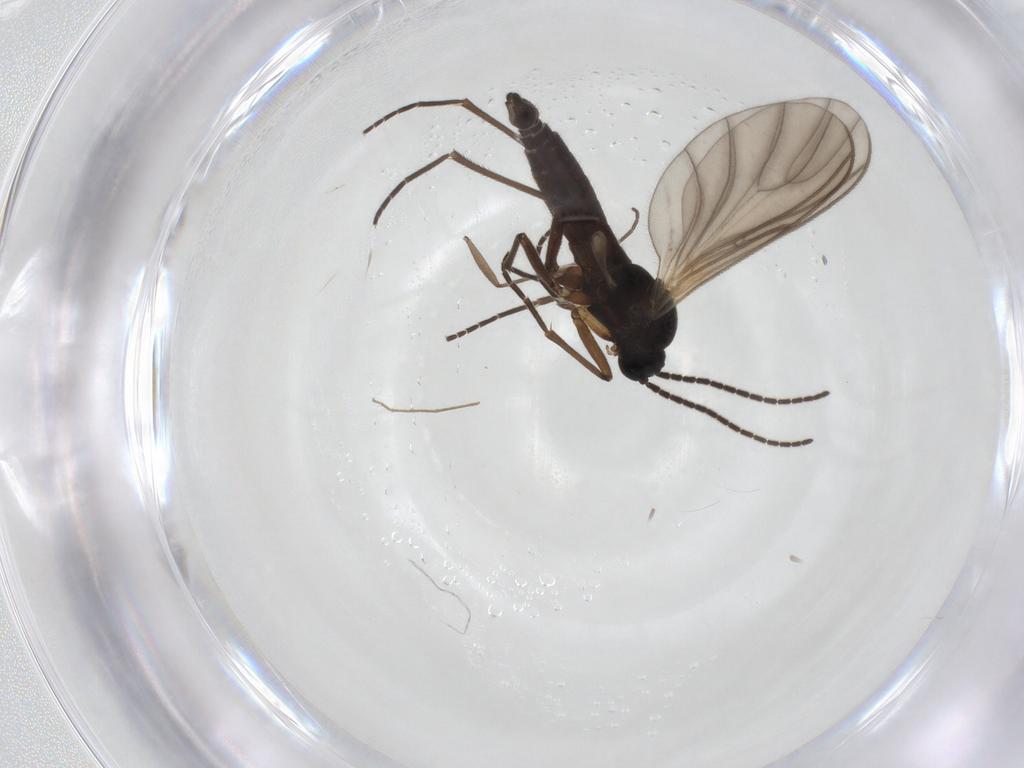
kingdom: Animalia
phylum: Arthropoda
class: Insecta
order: Diptera
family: Sciaridae
